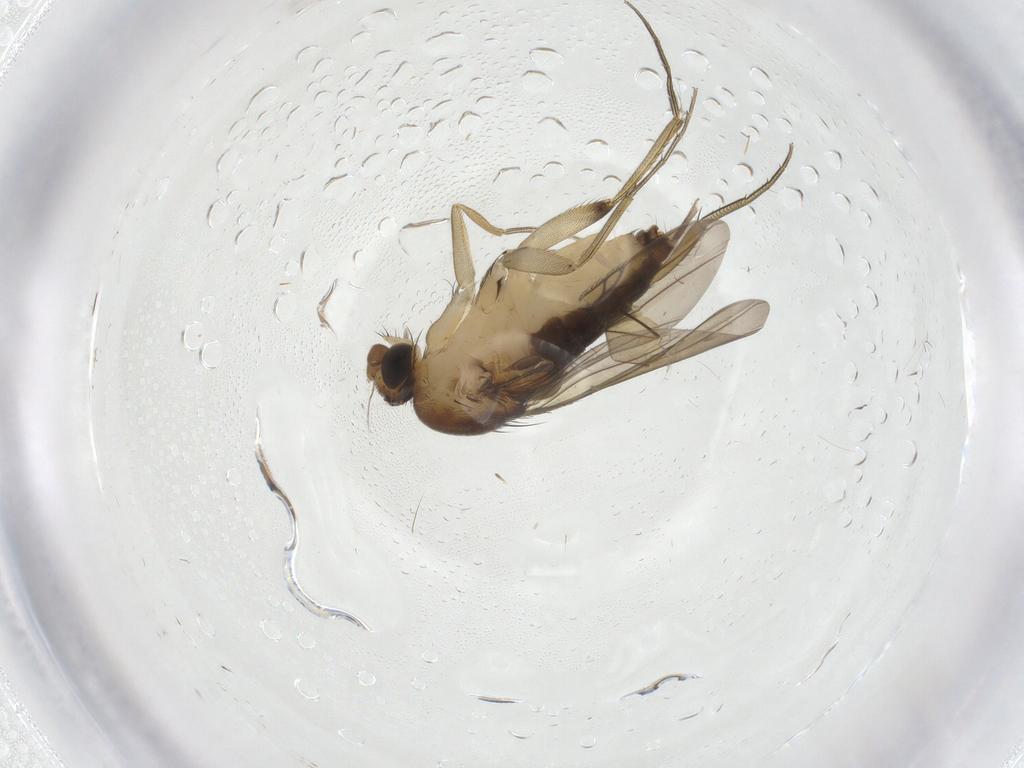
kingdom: Animalia
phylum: Arthropoda
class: Insecta
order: Diptera
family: Phoridae
